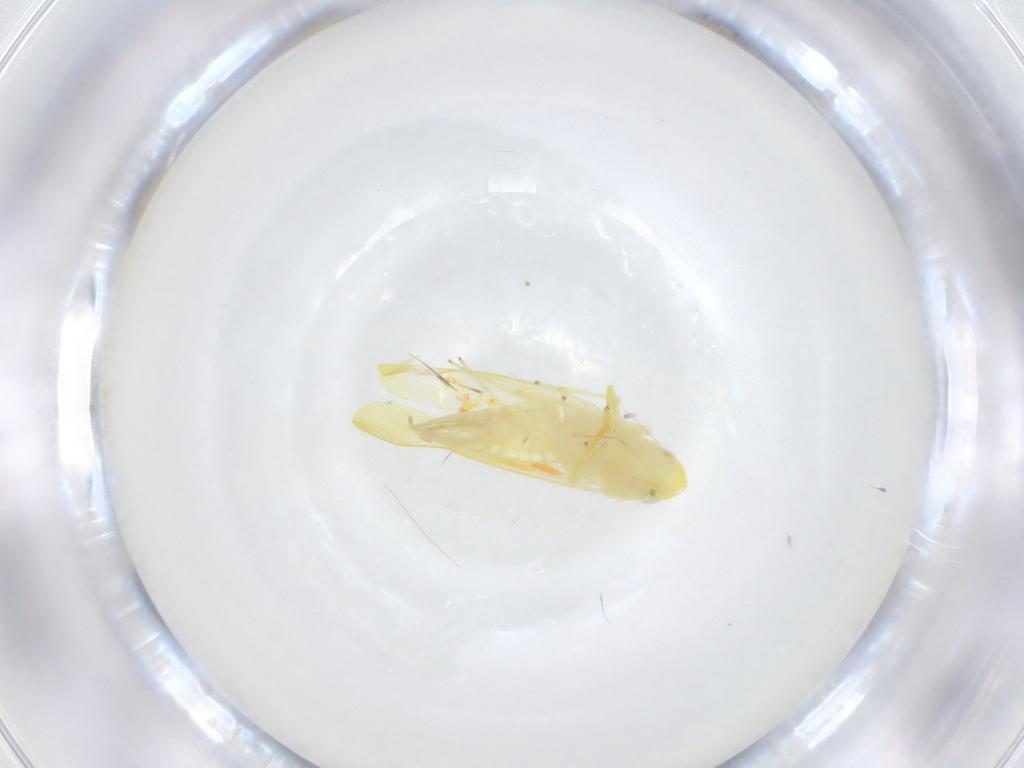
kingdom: Animalia
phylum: Arthropoda
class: Insecta
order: Hemiptera
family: Cicadellidae
